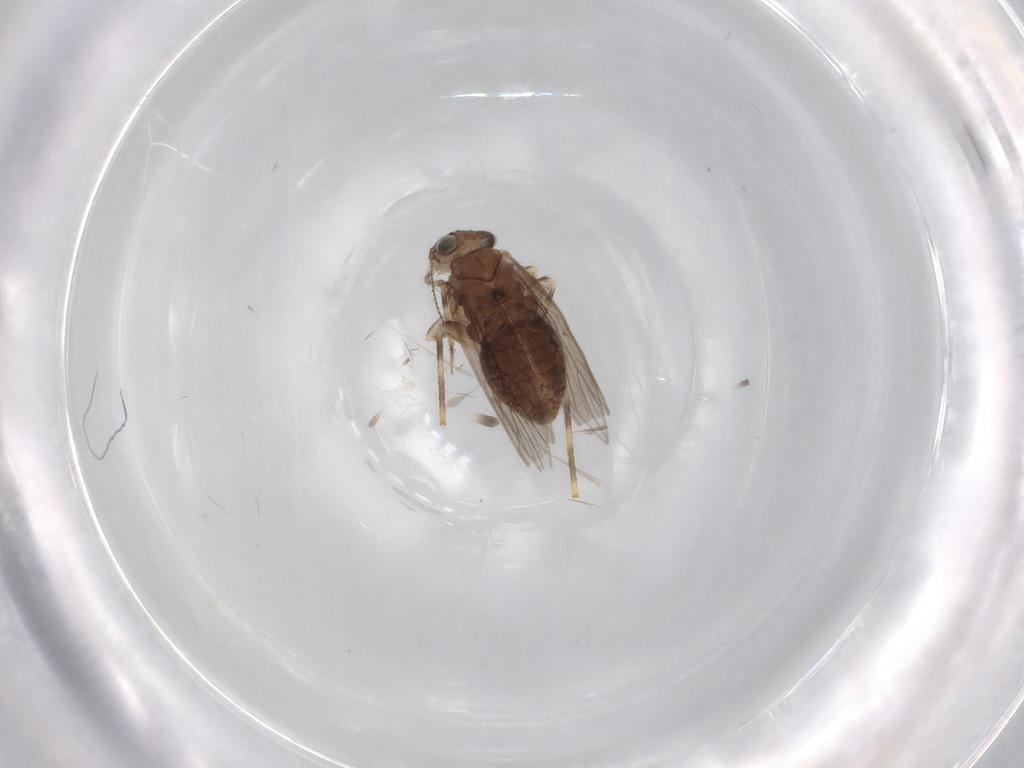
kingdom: Animalia
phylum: Arthropoda
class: Insecta
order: Psocodea
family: Lepidopsocidae
